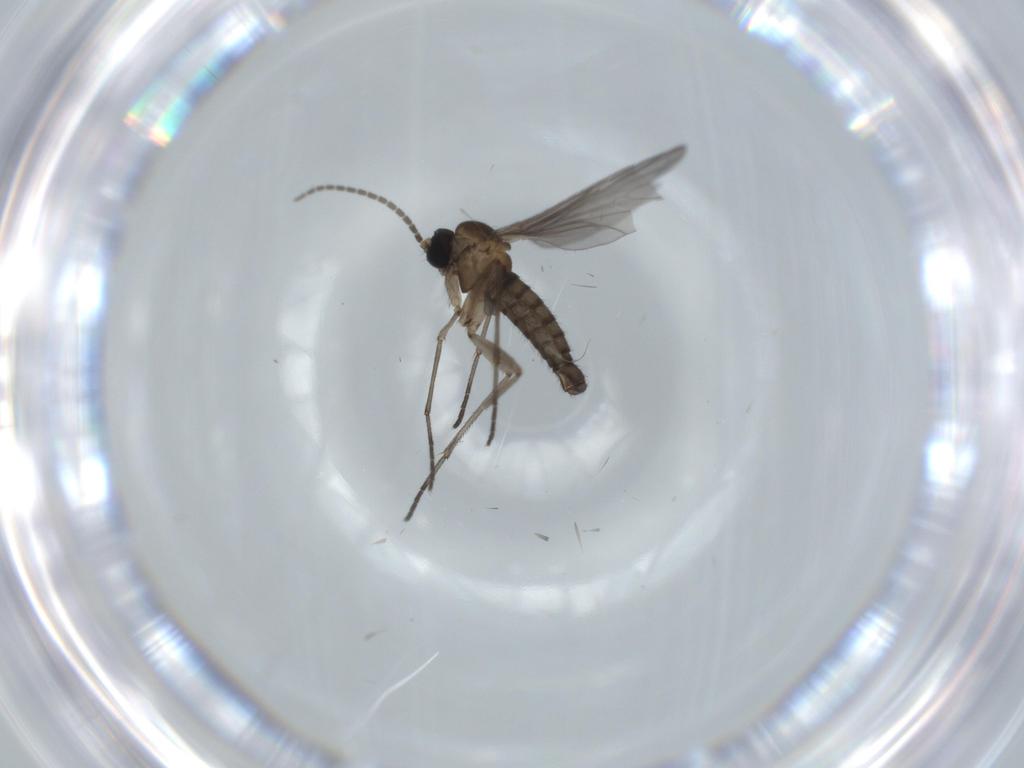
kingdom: Animalia
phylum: Arthropoda
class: Insecta
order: Diptera
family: Sciaridae
